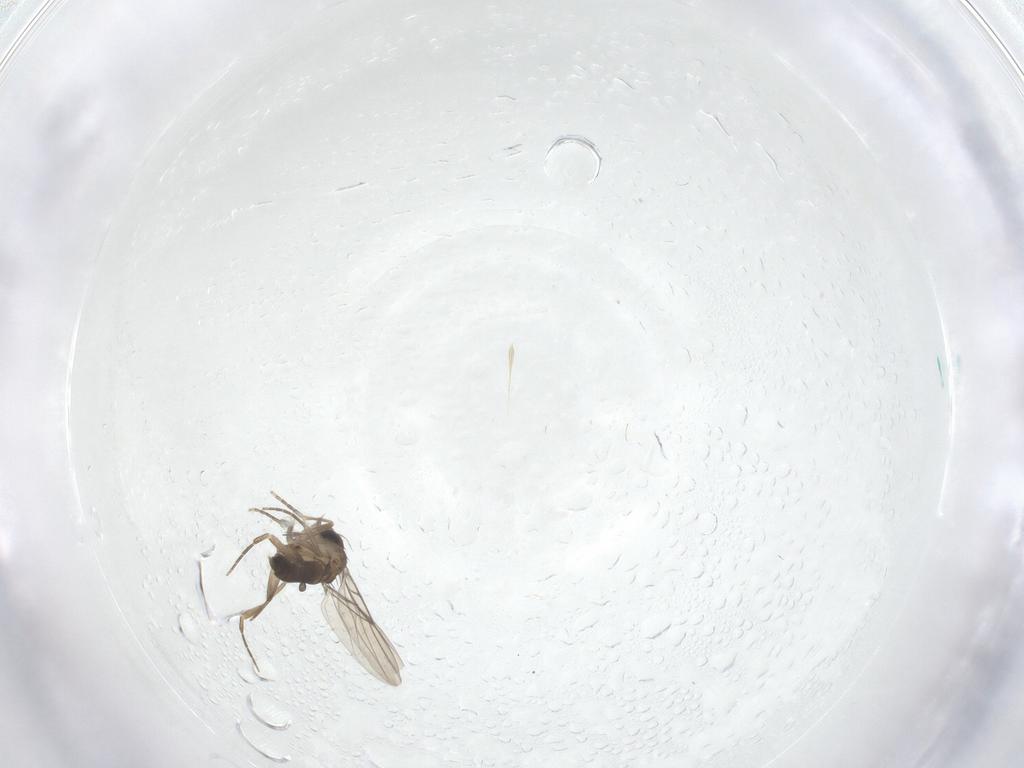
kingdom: Animalia
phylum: Arthropoda
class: Insecta
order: Diptera
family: Phoridae
